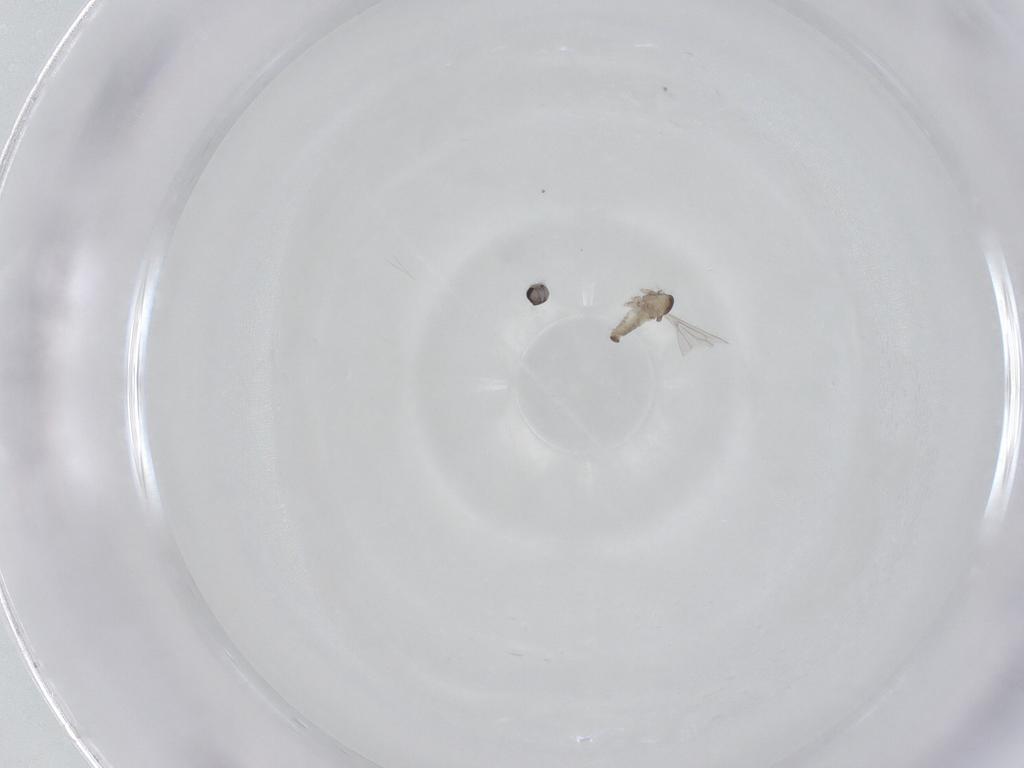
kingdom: Animalia
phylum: Arthropoda
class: Insecta
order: Diptera
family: Cecidomyiidae
